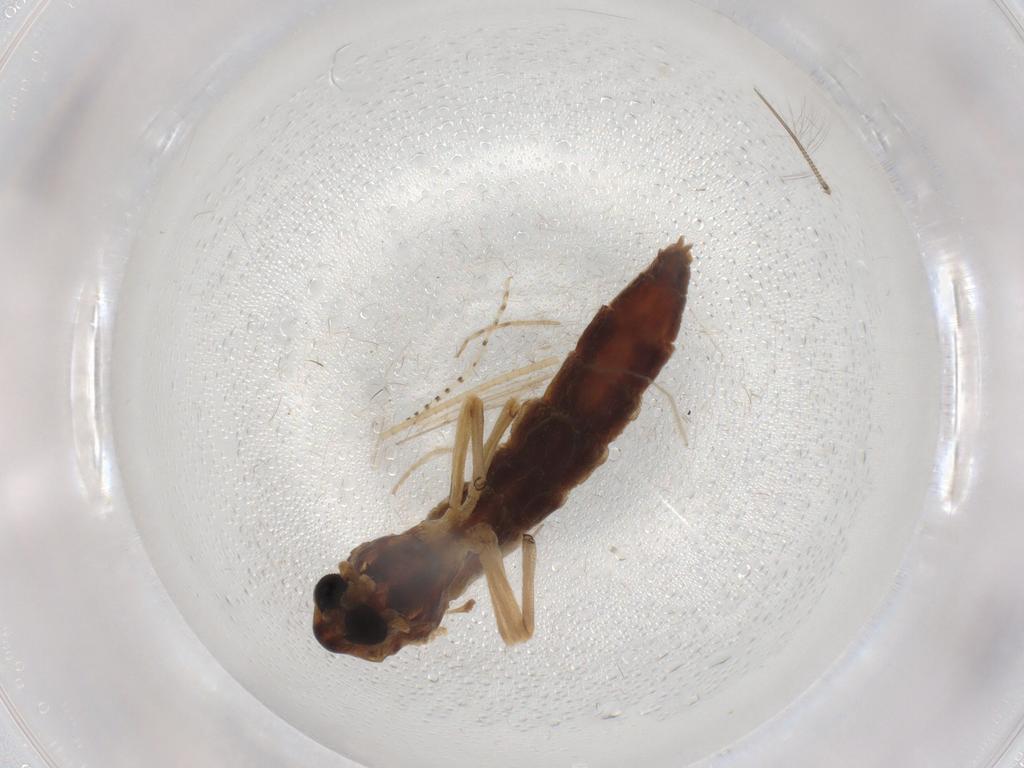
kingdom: Animalia
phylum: Arthropoda
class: Insecta
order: Diptera
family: Chironomidae
